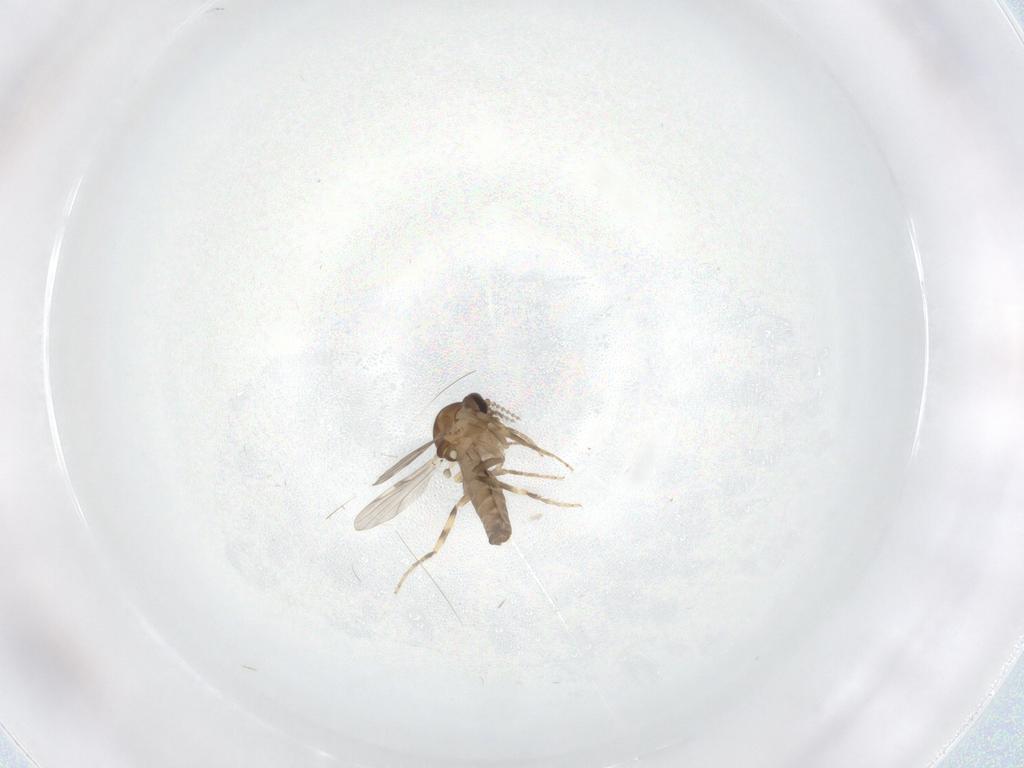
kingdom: Animalia
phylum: Arthropoda
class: Insecta
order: Diptera
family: Ceratopogonidae
